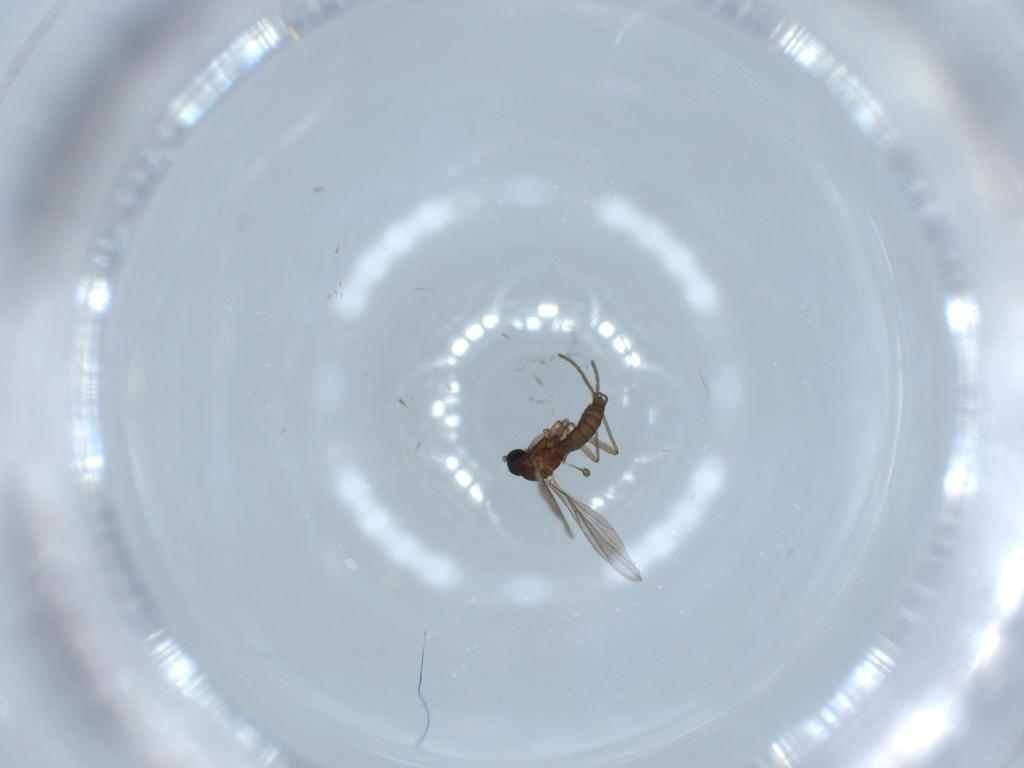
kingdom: Animalia
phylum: Arthropoda
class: Insecta
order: Diptera
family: Sciaridae
